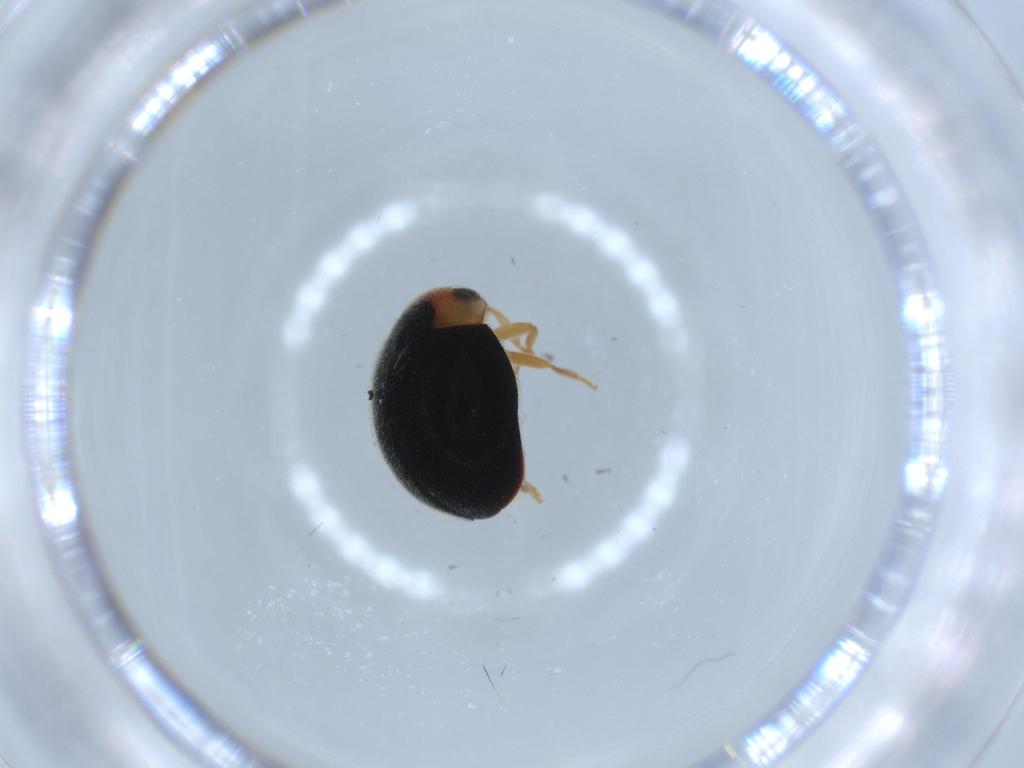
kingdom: Animalia
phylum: Arthropoda
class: Insecta
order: Coleoptera
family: Coccinellidae
